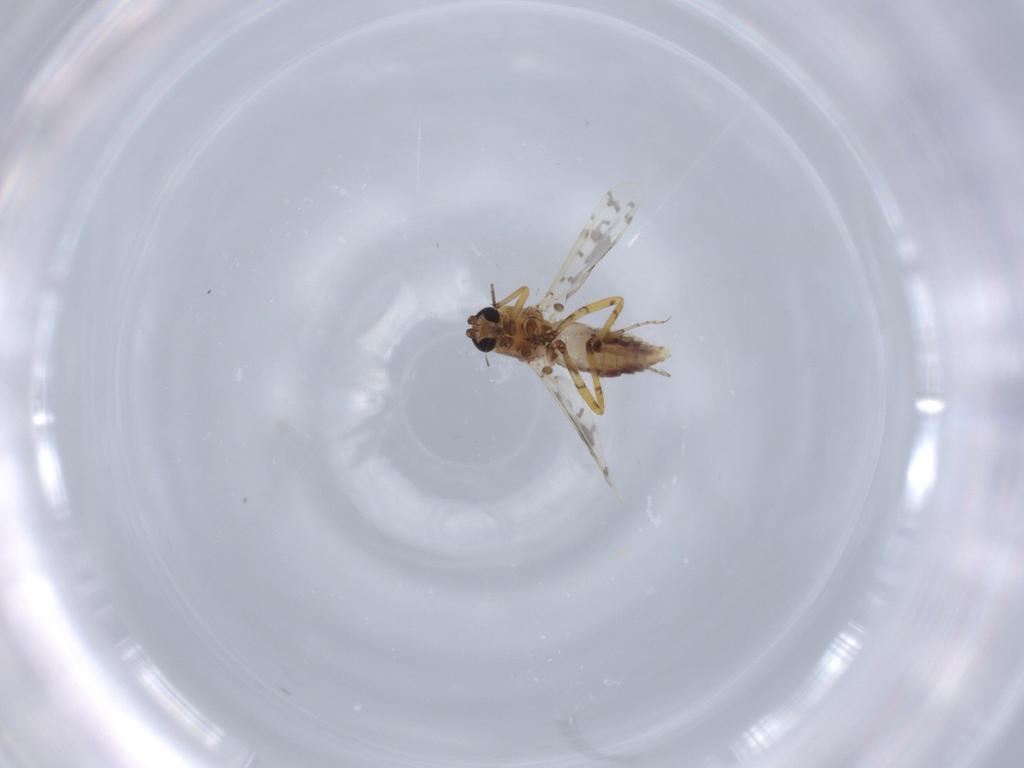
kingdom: Animalia
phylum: Arthropoda
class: Insecta
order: Diptera
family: Ceratopogonidae
